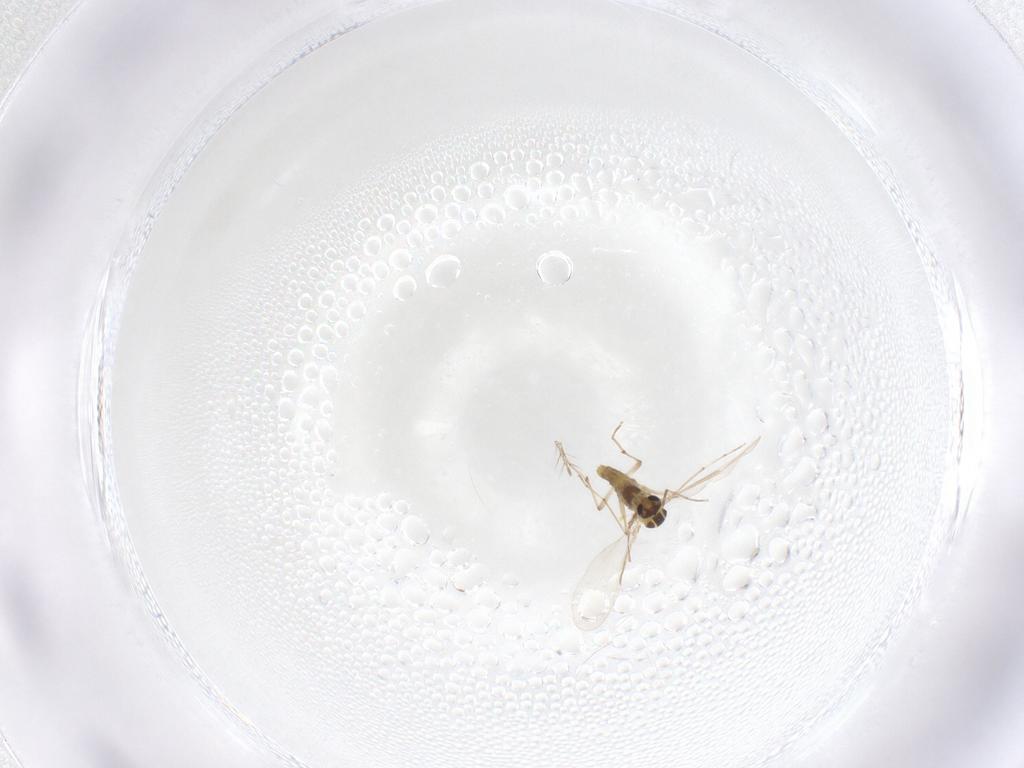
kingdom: Animalia
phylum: Arthropoda
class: Insecta
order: Diptera
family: Chironomidae
